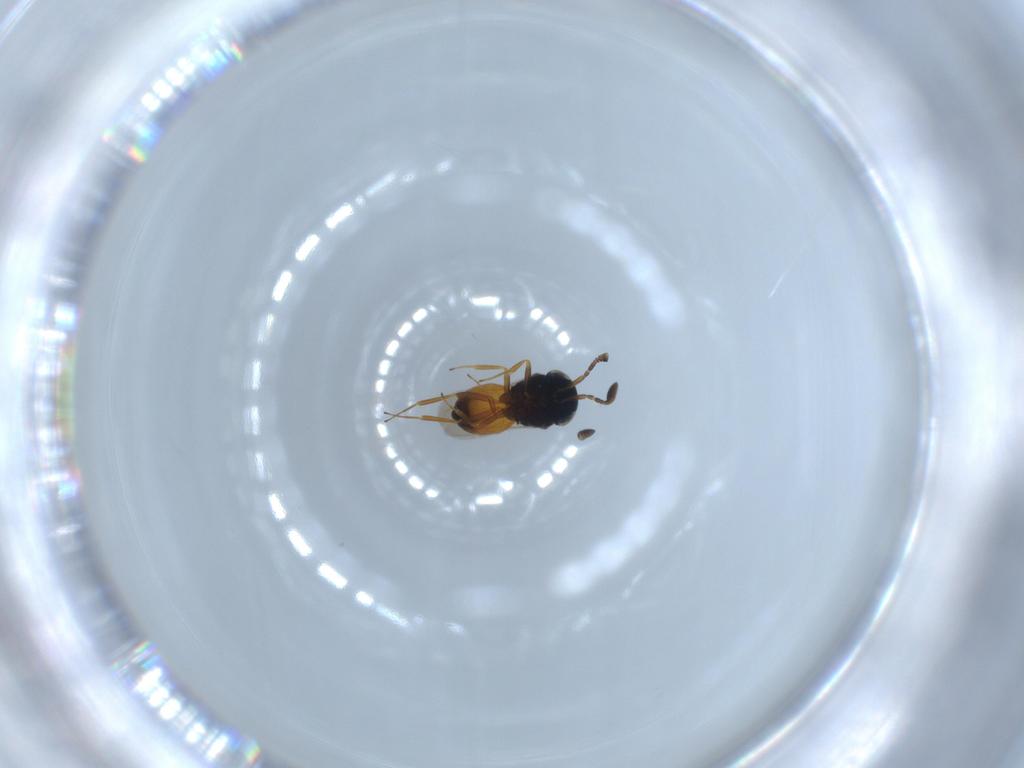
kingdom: Animalia
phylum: Arthropoda
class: Insecta
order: Hymenoptera
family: Scelionidae
